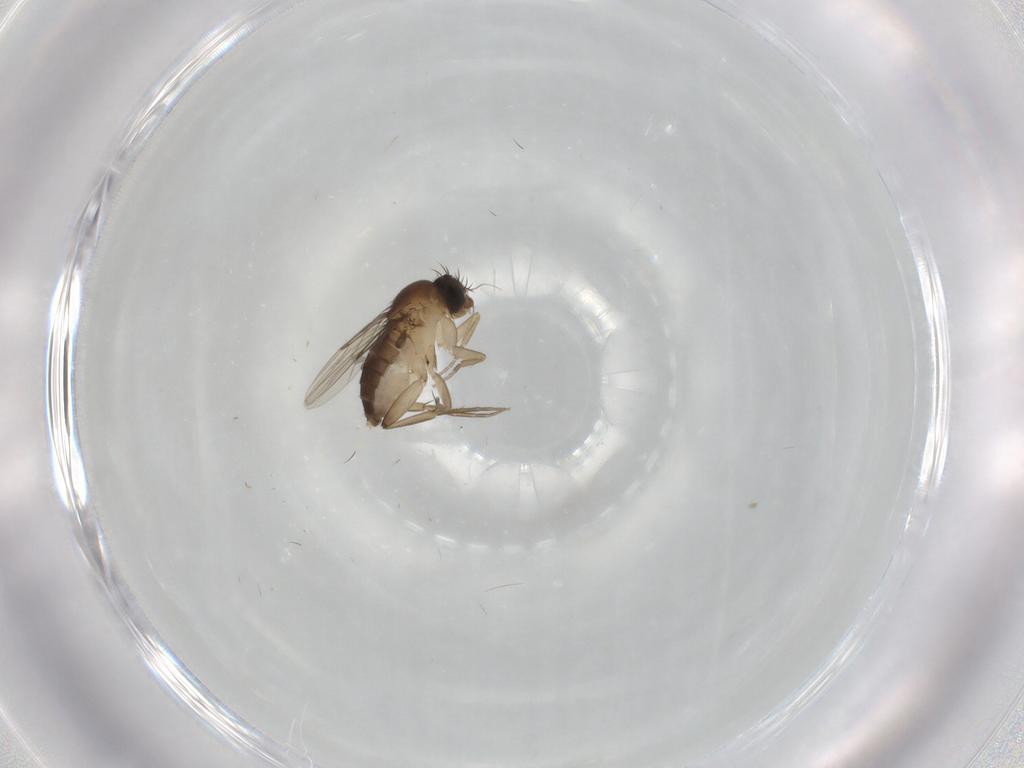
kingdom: Animalia
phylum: Arthropoda
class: Insecta
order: Diptera
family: Phoridae
